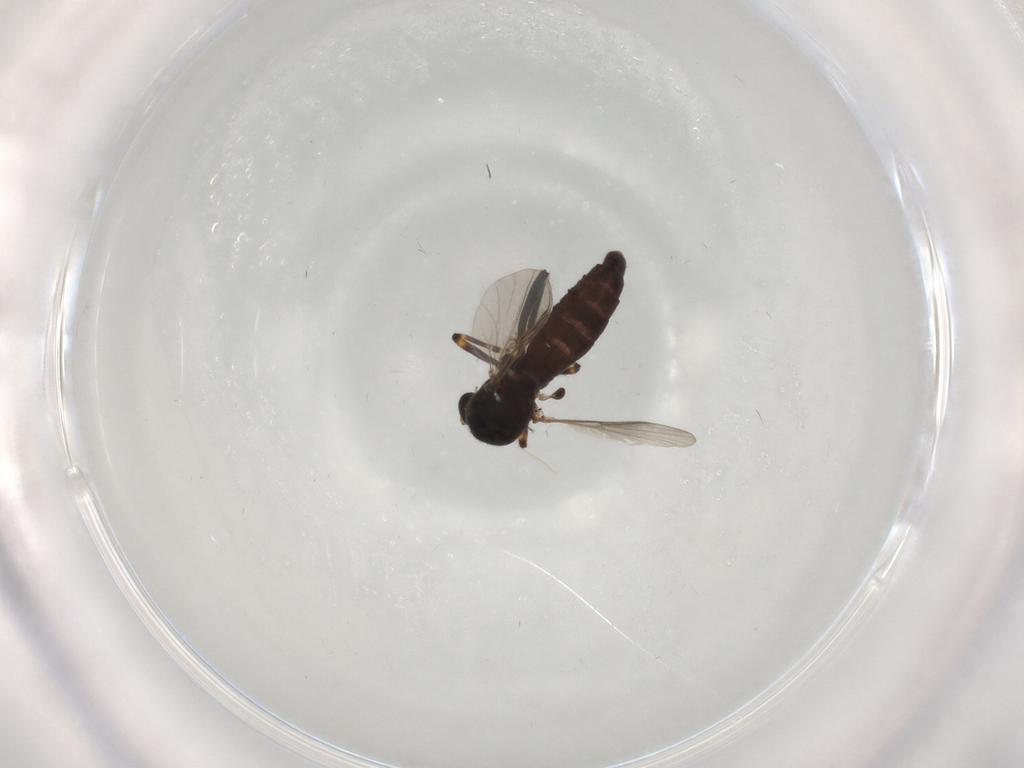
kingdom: Animalia
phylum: Arthropoda
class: Insecta
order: Diptera
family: Ceratopogonidae
